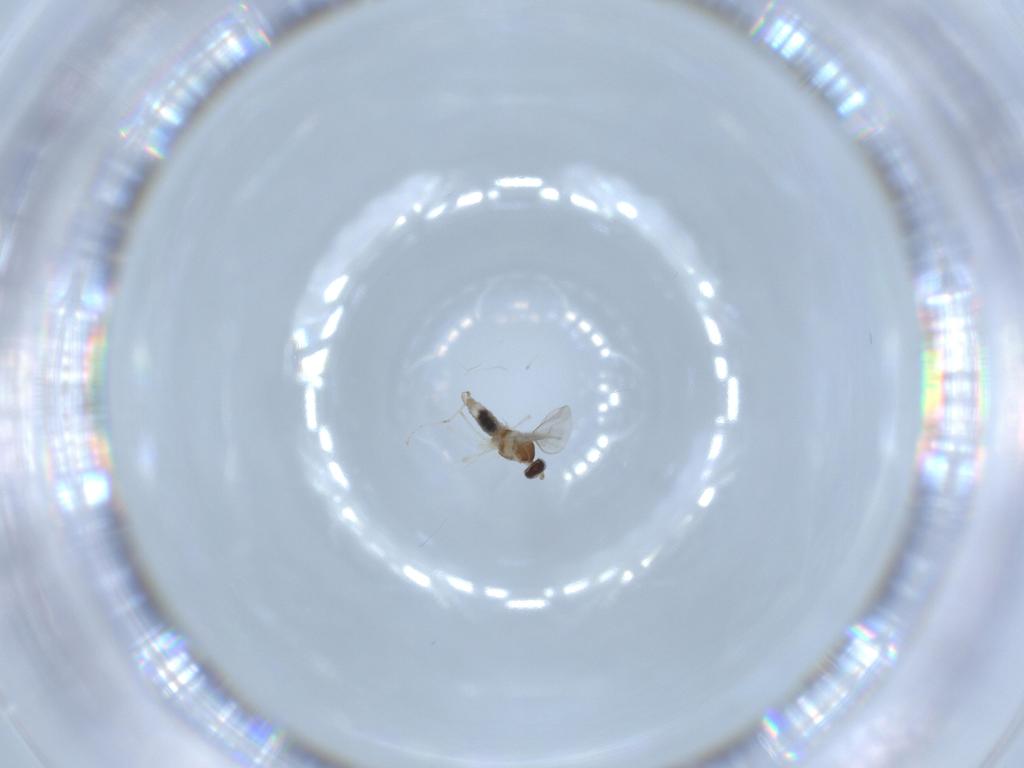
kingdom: Animalia
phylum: Arthropoda
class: Insecta
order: Diptera
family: Cecidomyiidae
